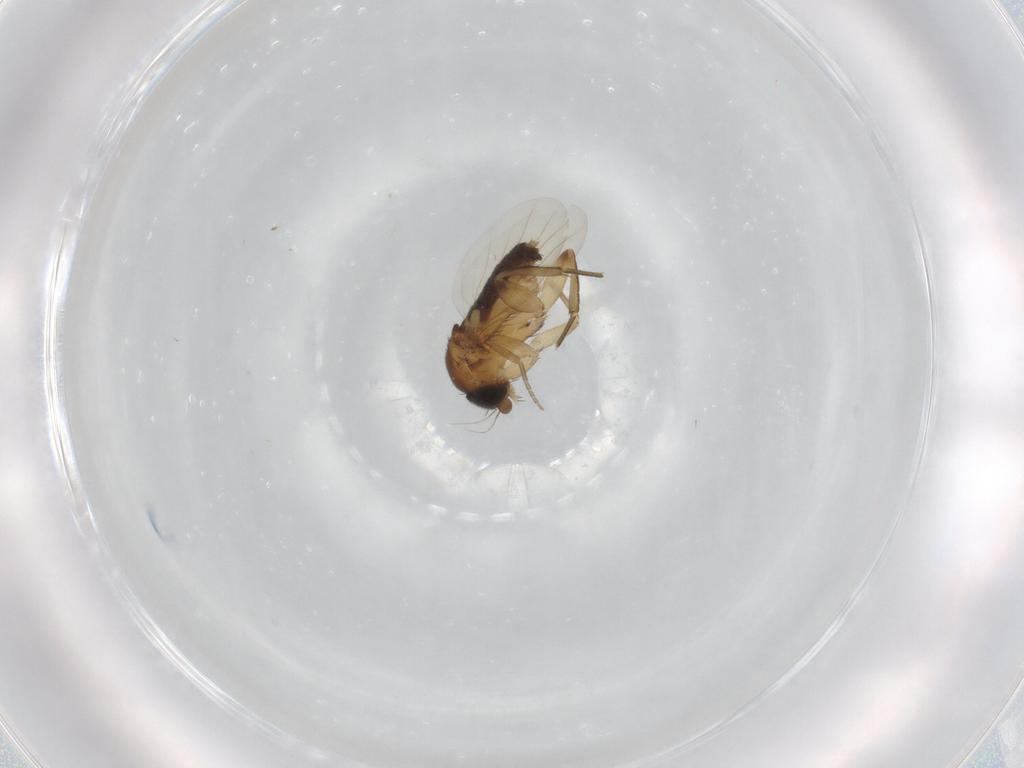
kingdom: Animalia
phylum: Arthropoda
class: Insecta
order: Diptera
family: Phoridae
